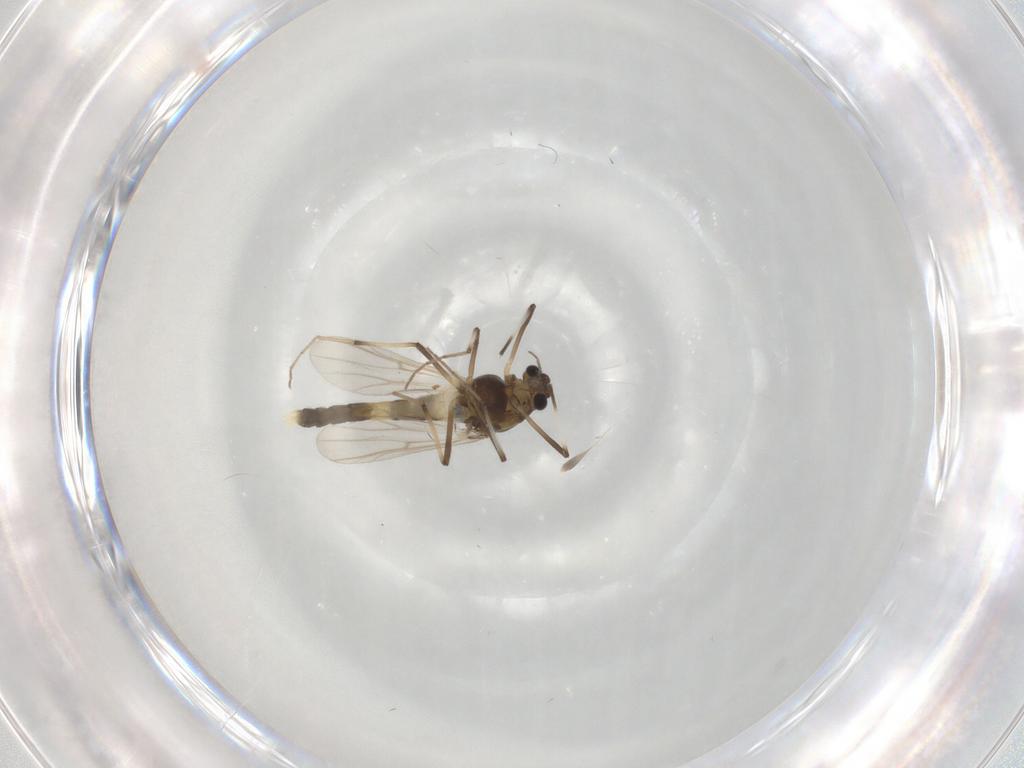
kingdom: Animalia
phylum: Arthropoda
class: Insecta
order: Diptera
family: Chironomidae
